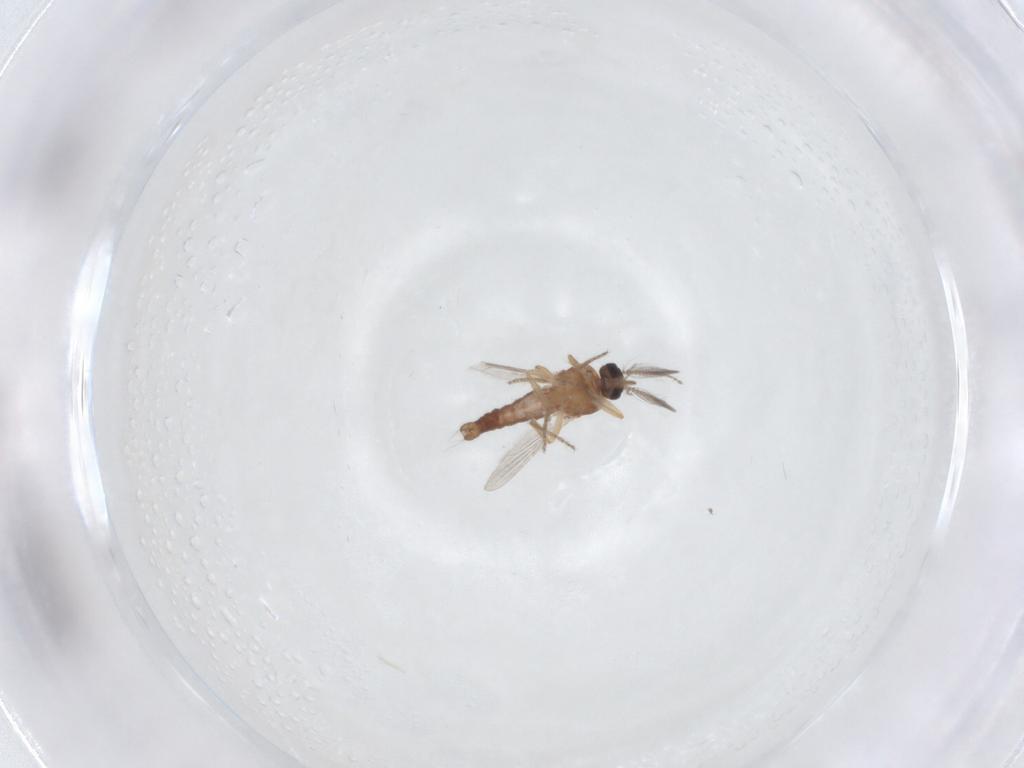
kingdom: Animalia
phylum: Arthropoda
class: Insecta
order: Diptera
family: Ceratopogonidae
